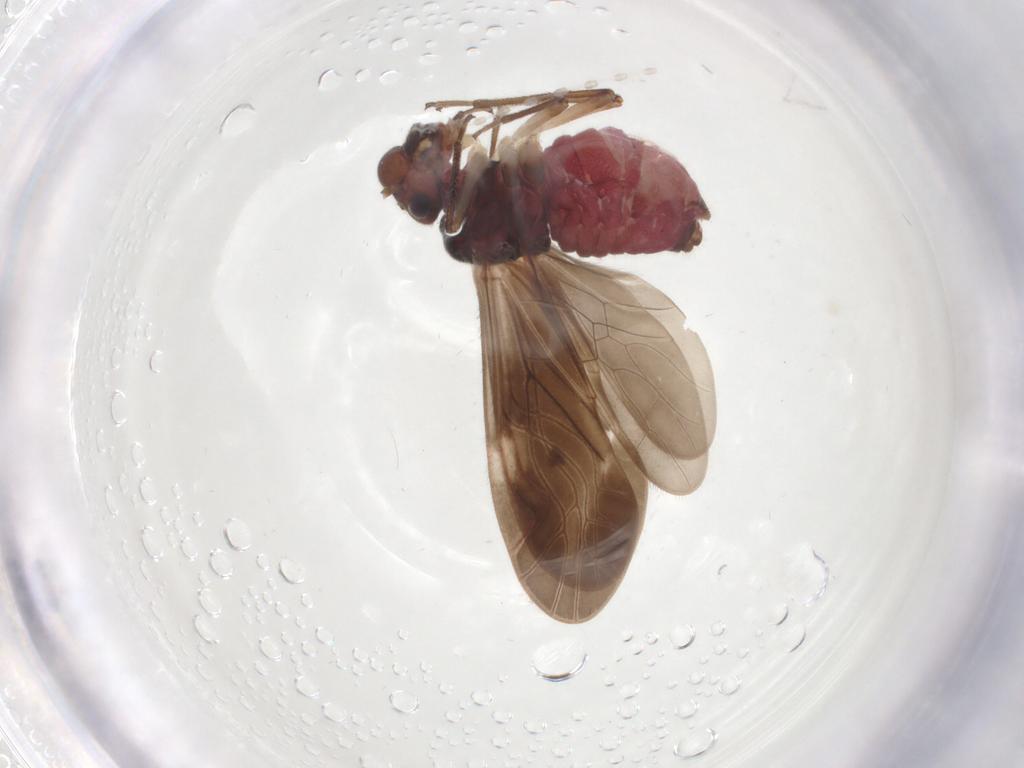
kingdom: Animalia
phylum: Arthropoda
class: Insecta
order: Psocodea
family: Caeciliusidae
